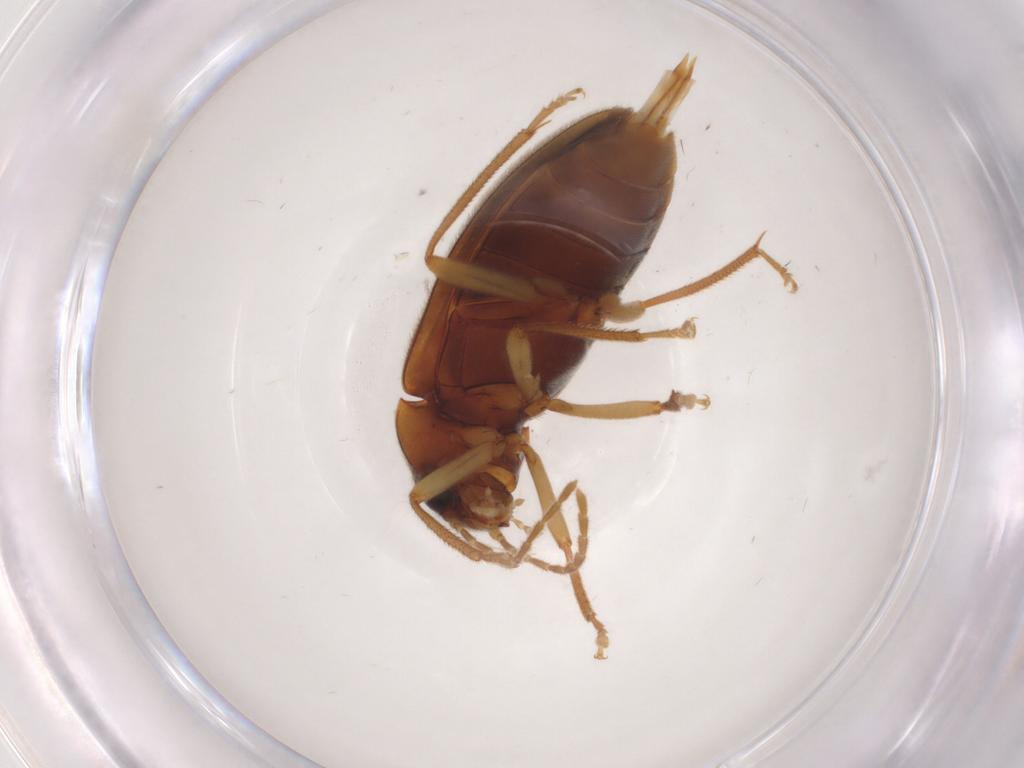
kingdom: Animalia
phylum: Arthropoda
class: Insecta
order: Coleoptera
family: Ptilodactylidae
